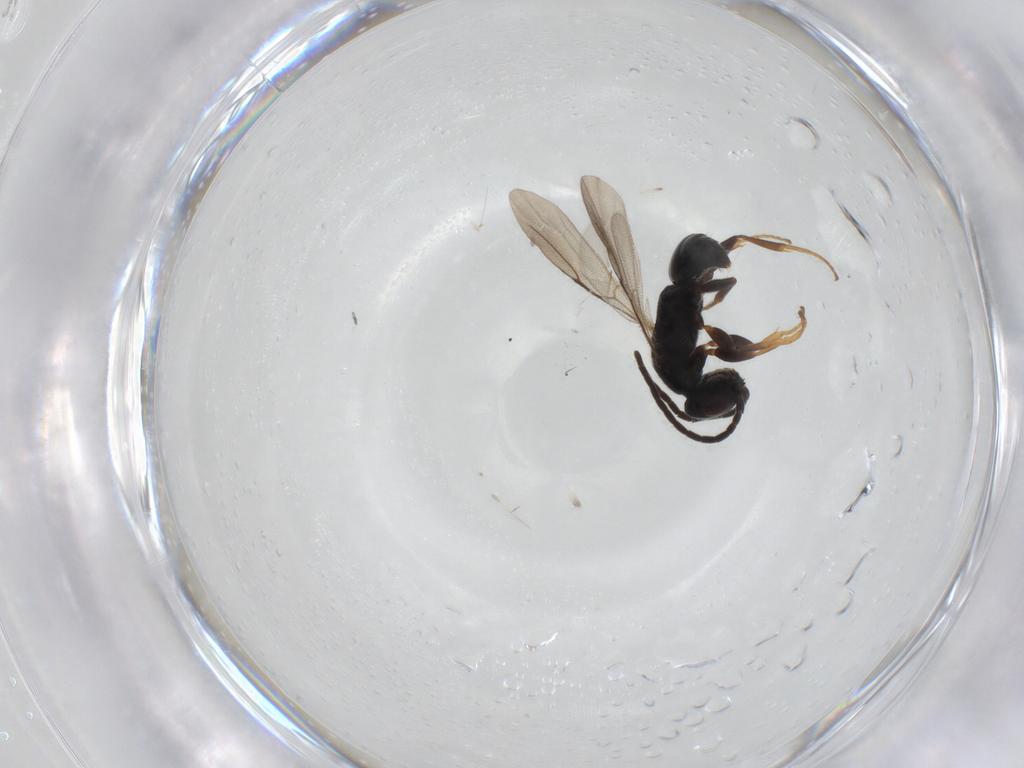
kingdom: Animalia
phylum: Arthropoda
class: Insecta
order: Hymenoptera
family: Bethylidae
